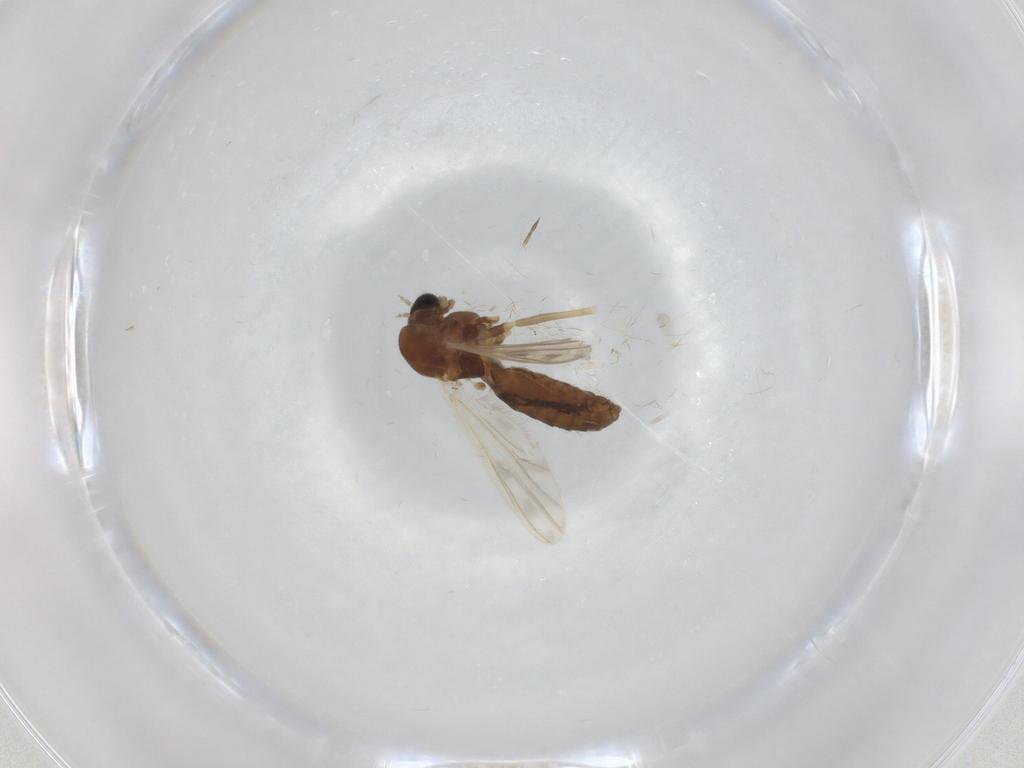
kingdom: Animalia
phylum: Arthropoda
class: Insecta
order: Diptera
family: Chironomidae
